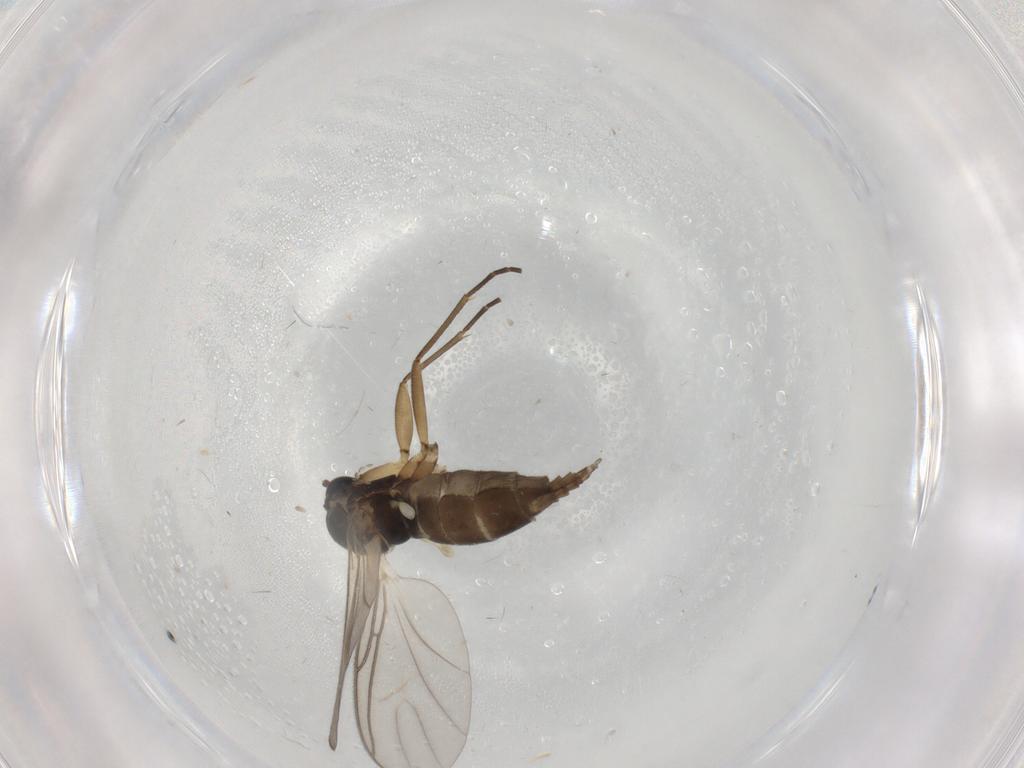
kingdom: Animalia
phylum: Arthropoda
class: Insecta
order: Diptera
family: Sciaridae
